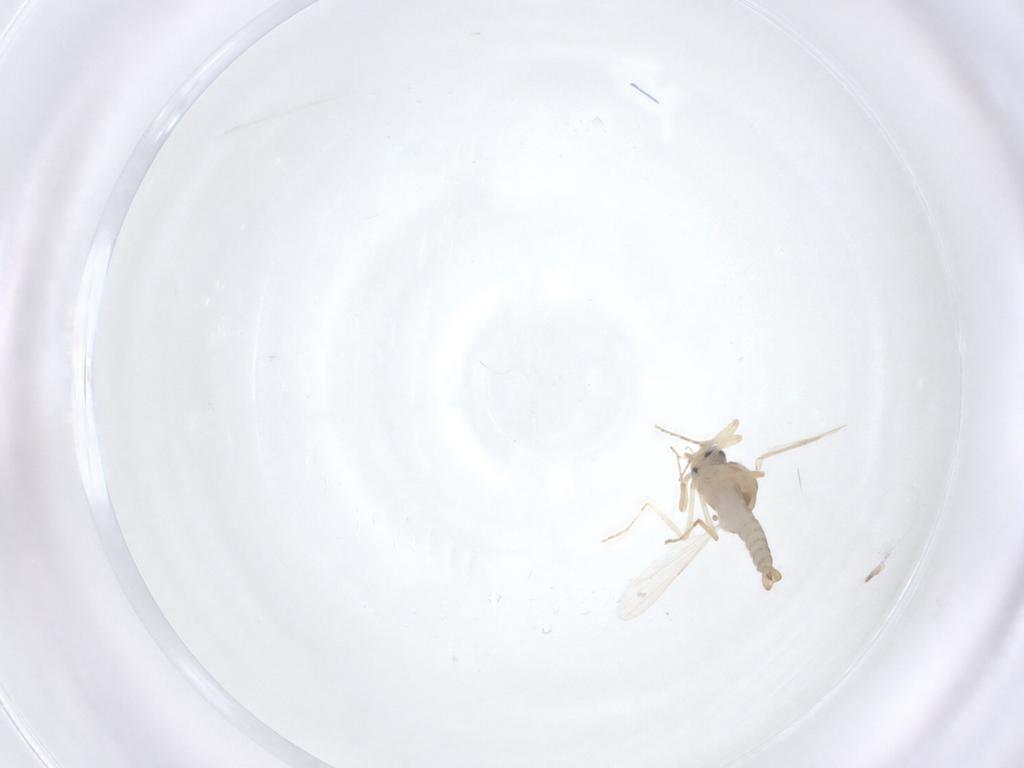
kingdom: Animalia
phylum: Arthropoda
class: Insecta
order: Diptera
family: Ceratopogonidae
